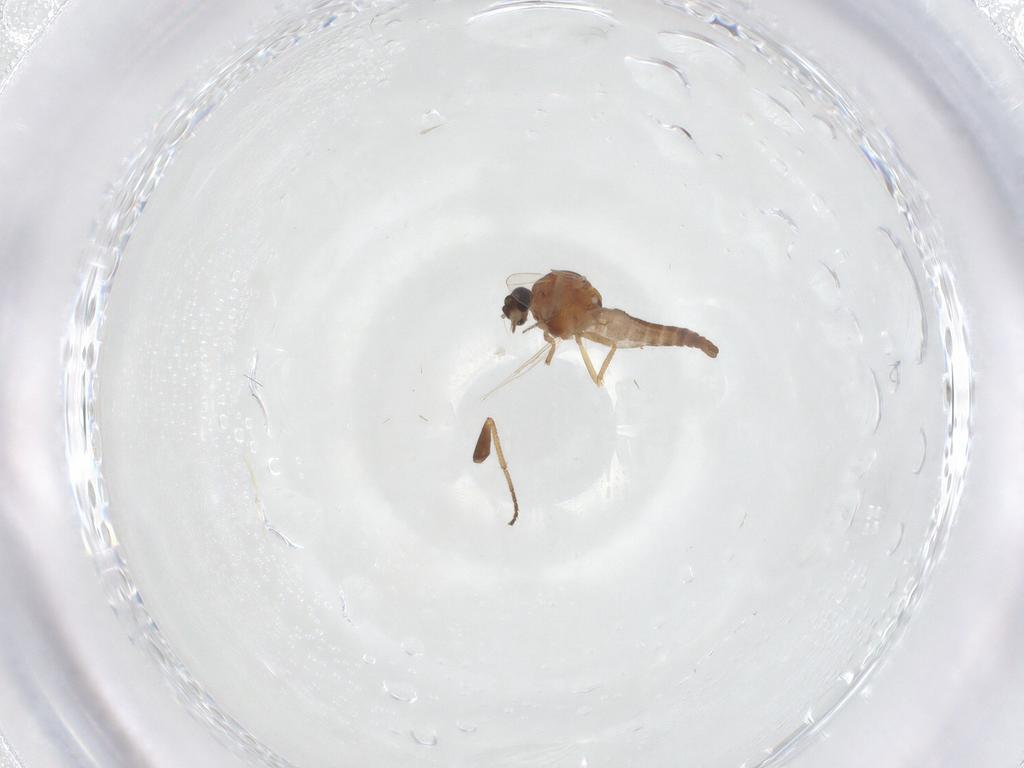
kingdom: Animalia
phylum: Arthropoda
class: Insecta
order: Diptera
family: Ceratopogonidae
